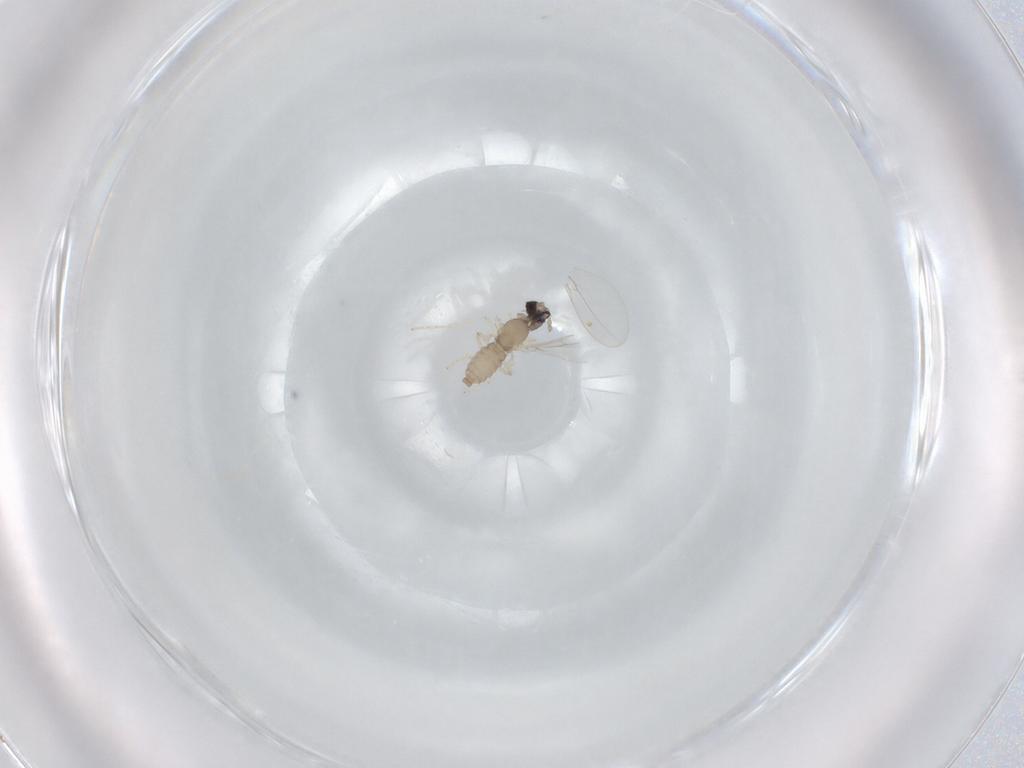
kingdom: Animalia
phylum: Arthropoda
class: Insecta
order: Diptera
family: Cecidomyiidae
